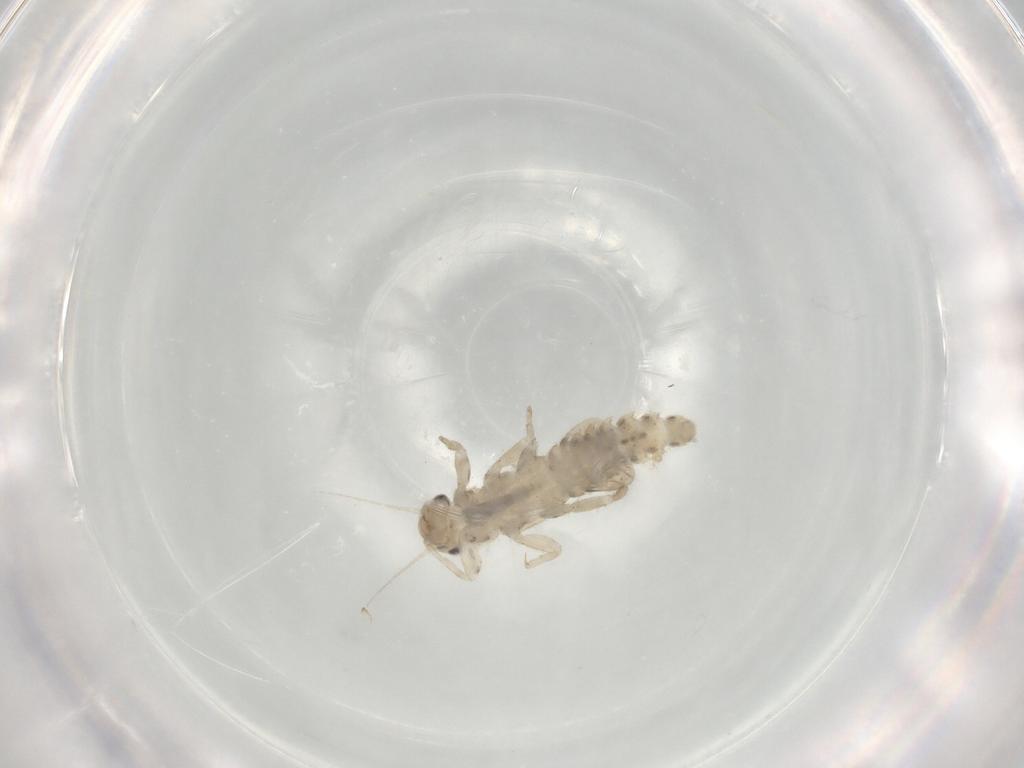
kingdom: Animalia
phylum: Arthropoda
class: Insecta
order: Ephemeroptera
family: Caenidae
